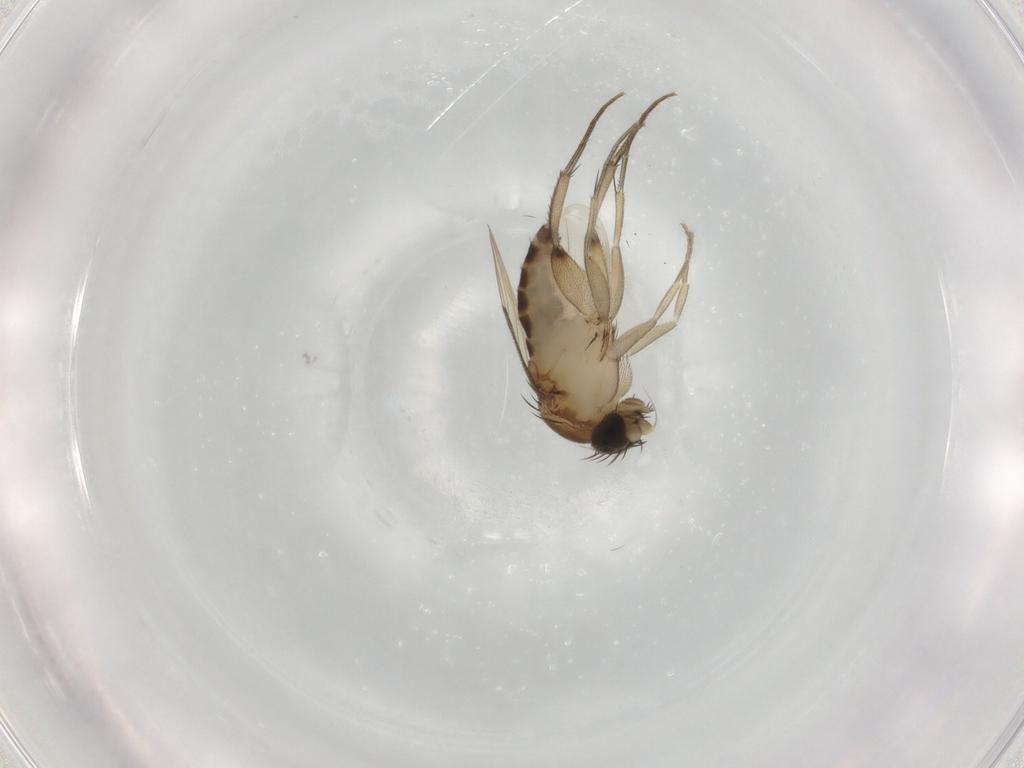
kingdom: Animalia
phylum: Arthropoda
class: Insecta
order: Diptera
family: Phoridae
